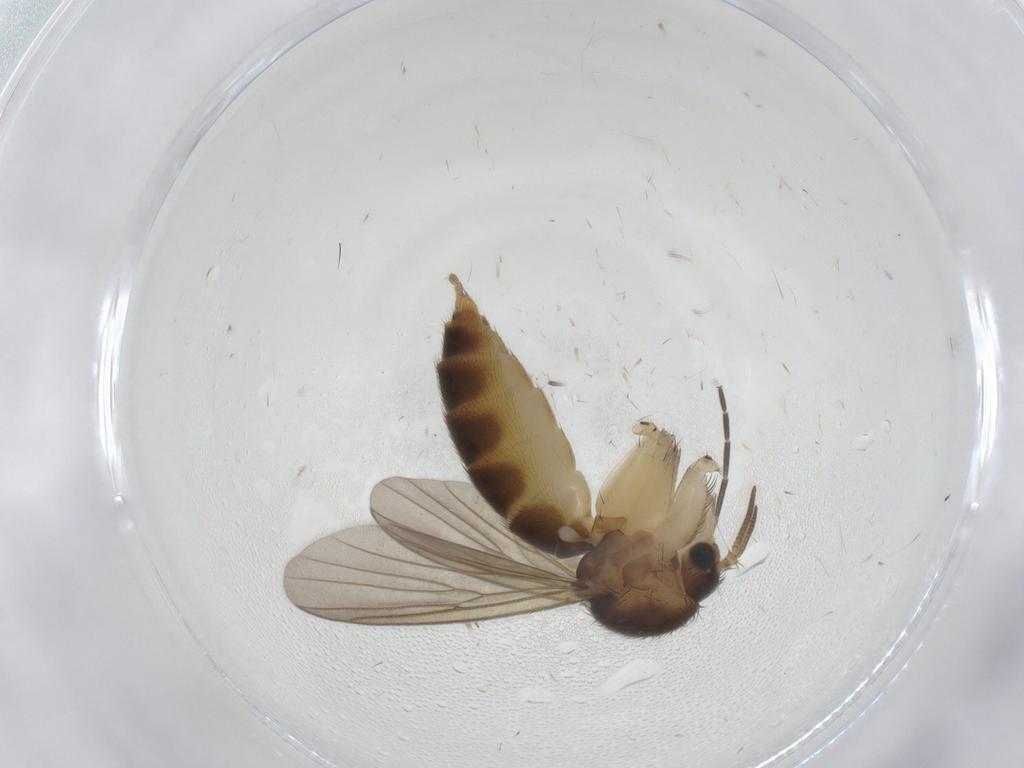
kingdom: Animalia
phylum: Arthropoda
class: Insecta
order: Diptera
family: Mycetophilidae
